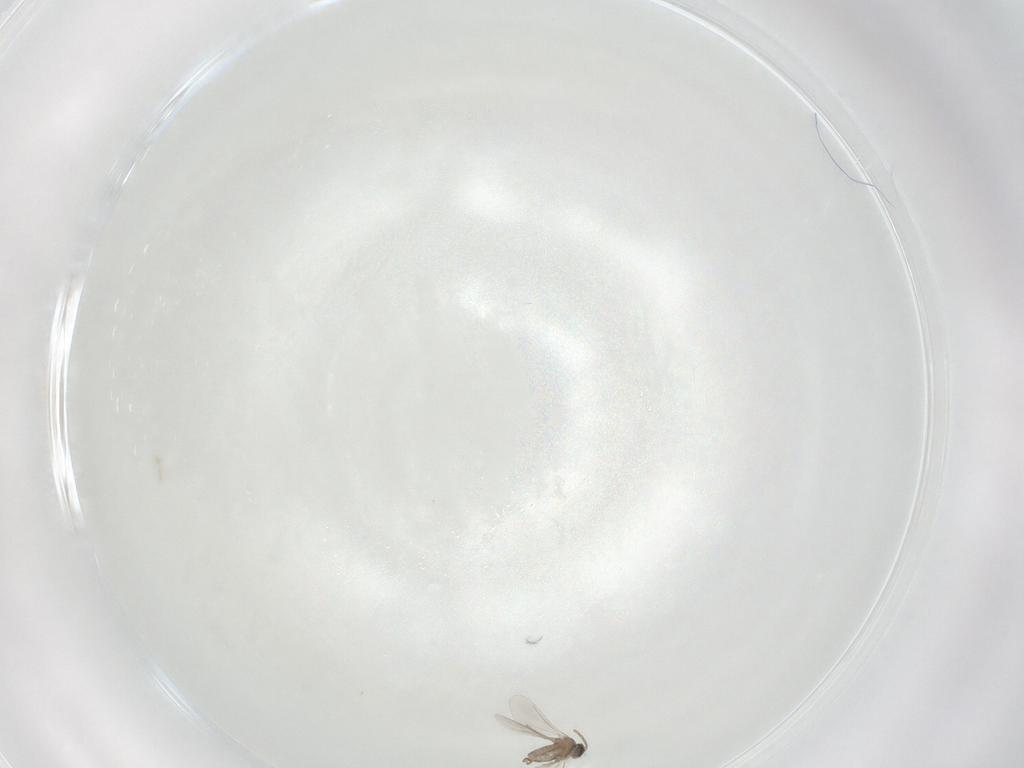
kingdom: Animalia
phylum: Arthropoda
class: Insecta
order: Diptera
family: Cecidomyiidae
